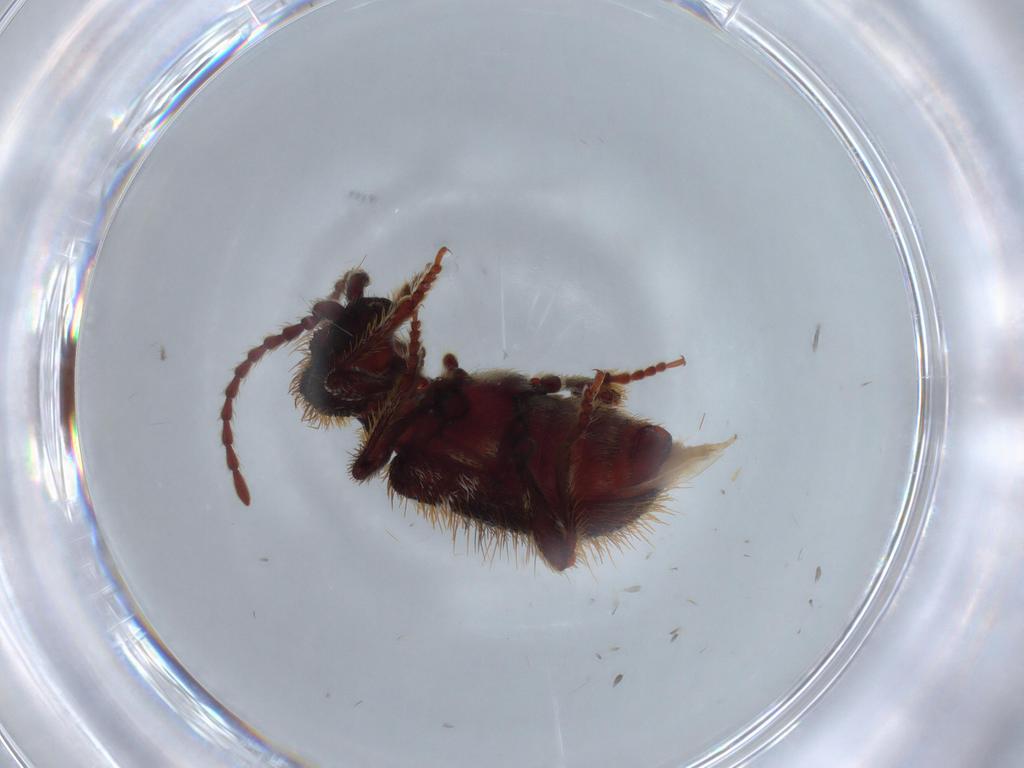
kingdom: Animalia
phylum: Arthropoda
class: Insecta
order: Coleoptera
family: Ptinidae
